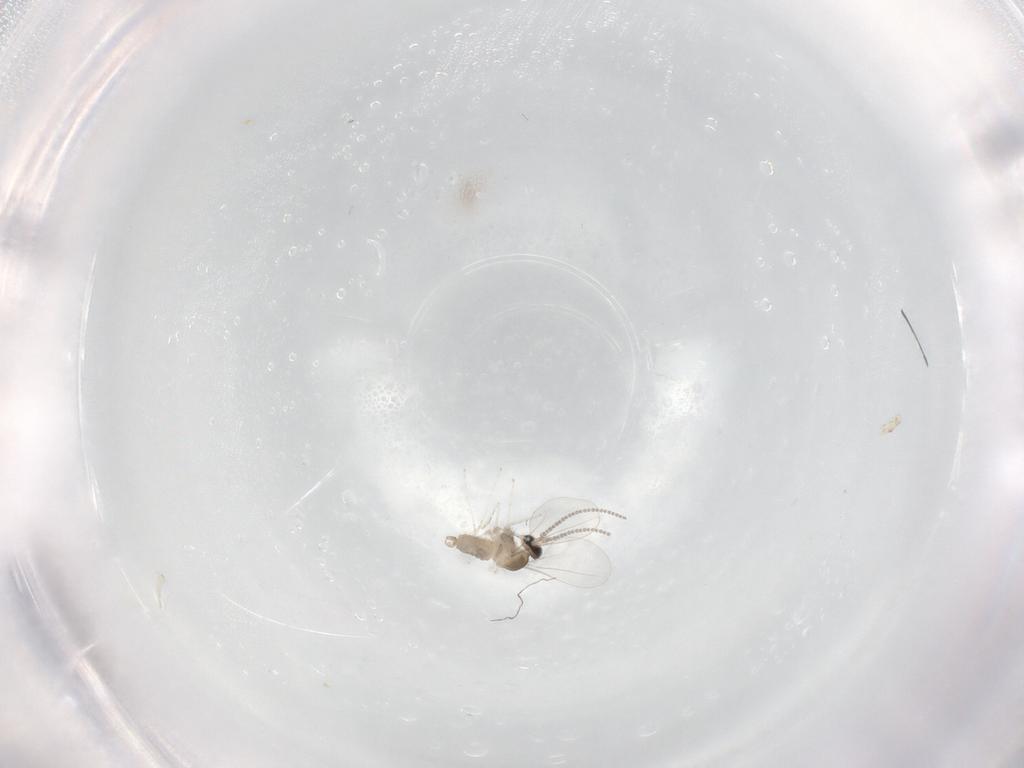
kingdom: Animalia
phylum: Arthropoda
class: Insecta
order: Diptera
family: Cecidomyiidae
